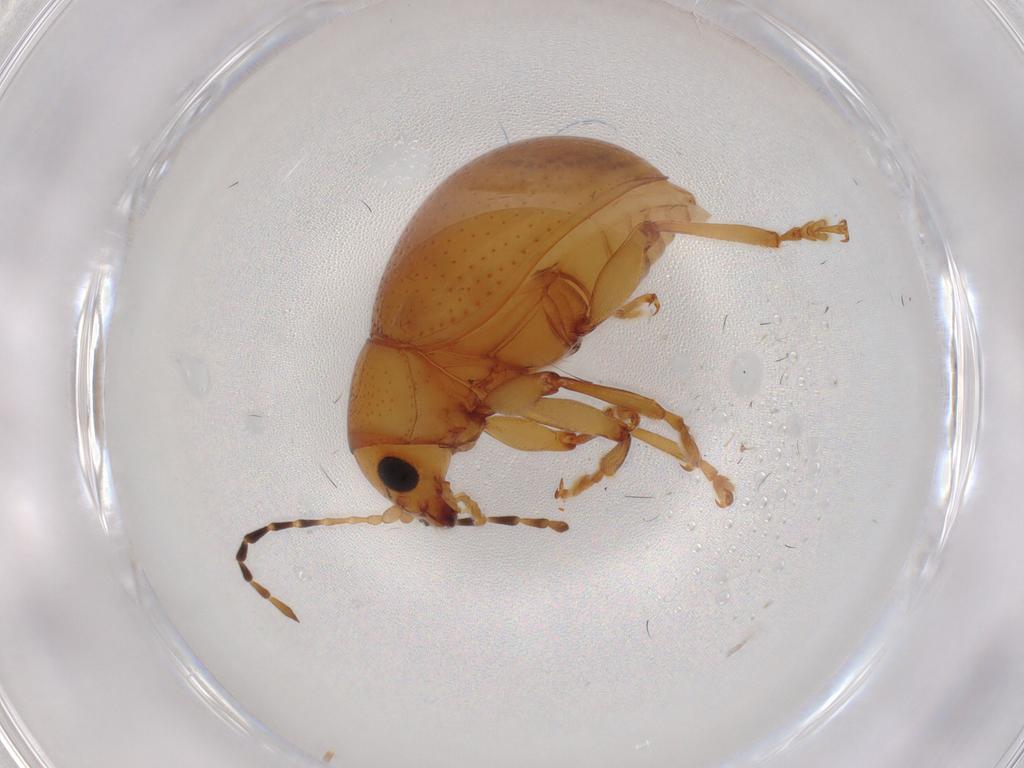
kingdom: Animalia
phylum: Arthropoda
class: Insecta
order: Coleoptera
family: Chrysomelidae
